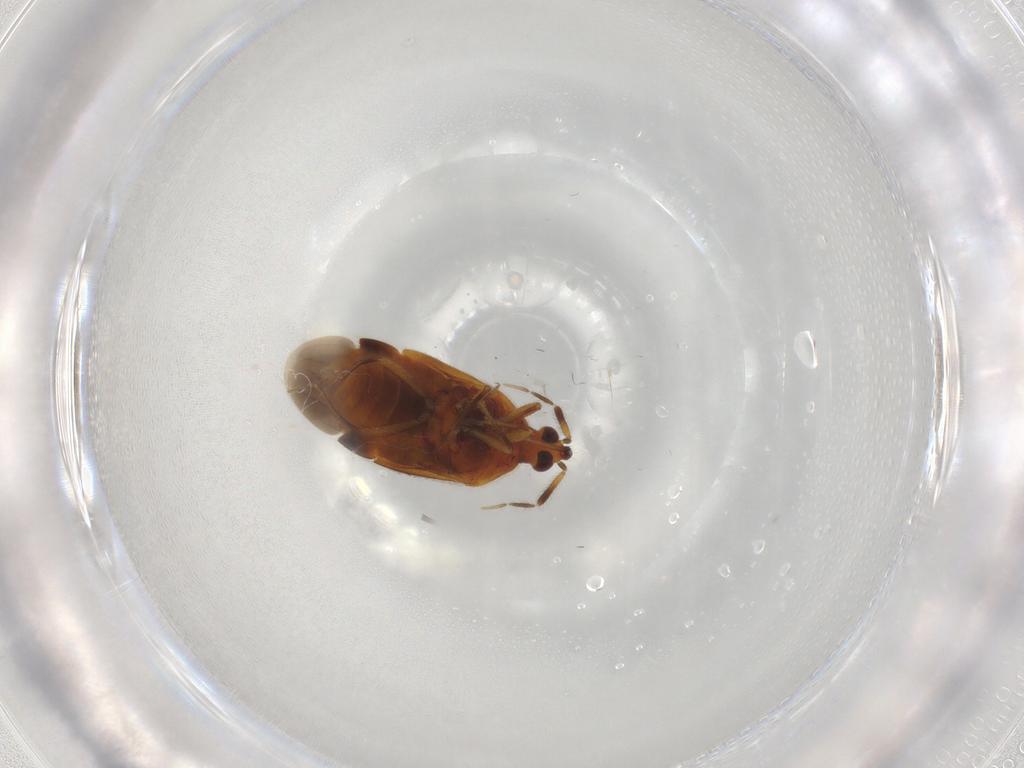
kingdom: Animalia
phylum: Arthropoda
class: Insecta
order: Hemiptera
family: Anthocoridae
